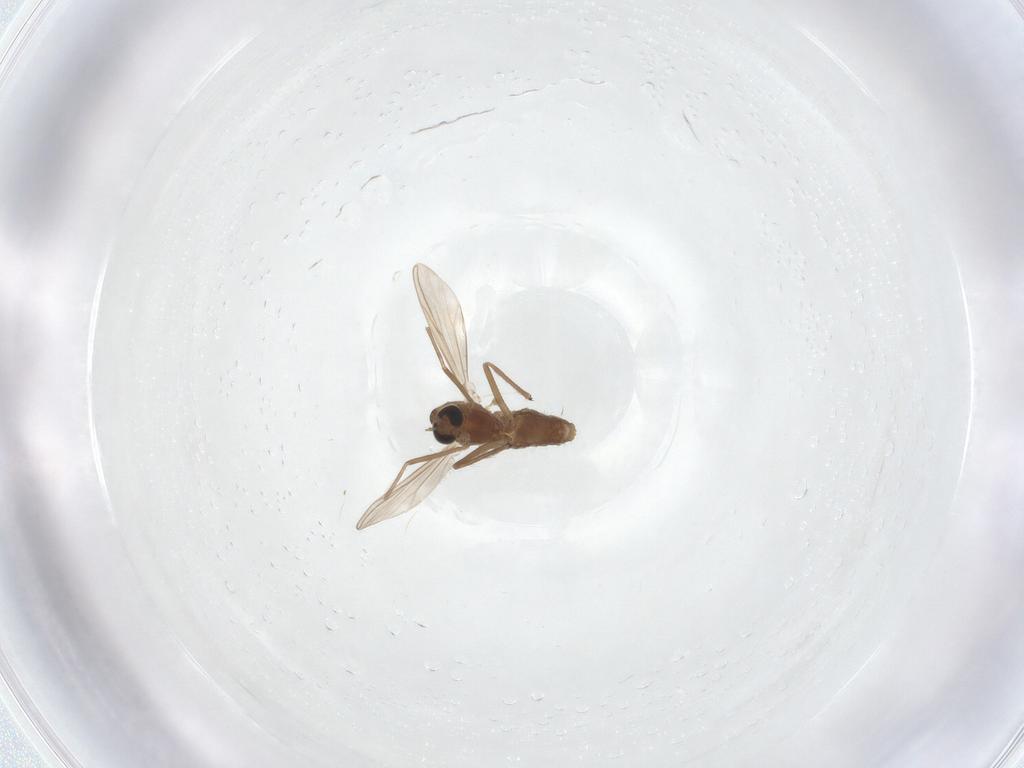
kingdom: Animalia
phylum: Arthropoda
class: Insecta
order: Diptera
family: Chironomidae
